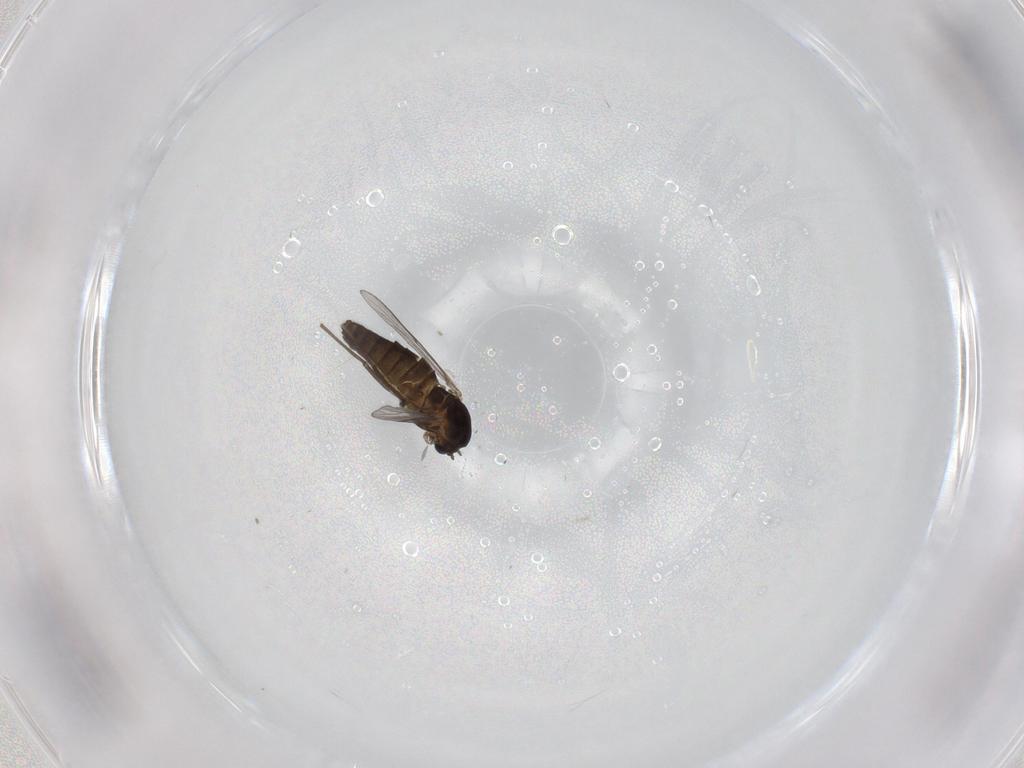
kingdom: Animalia
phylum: Arthropoda
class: Insecta
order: Diptera
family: Chironomidae
